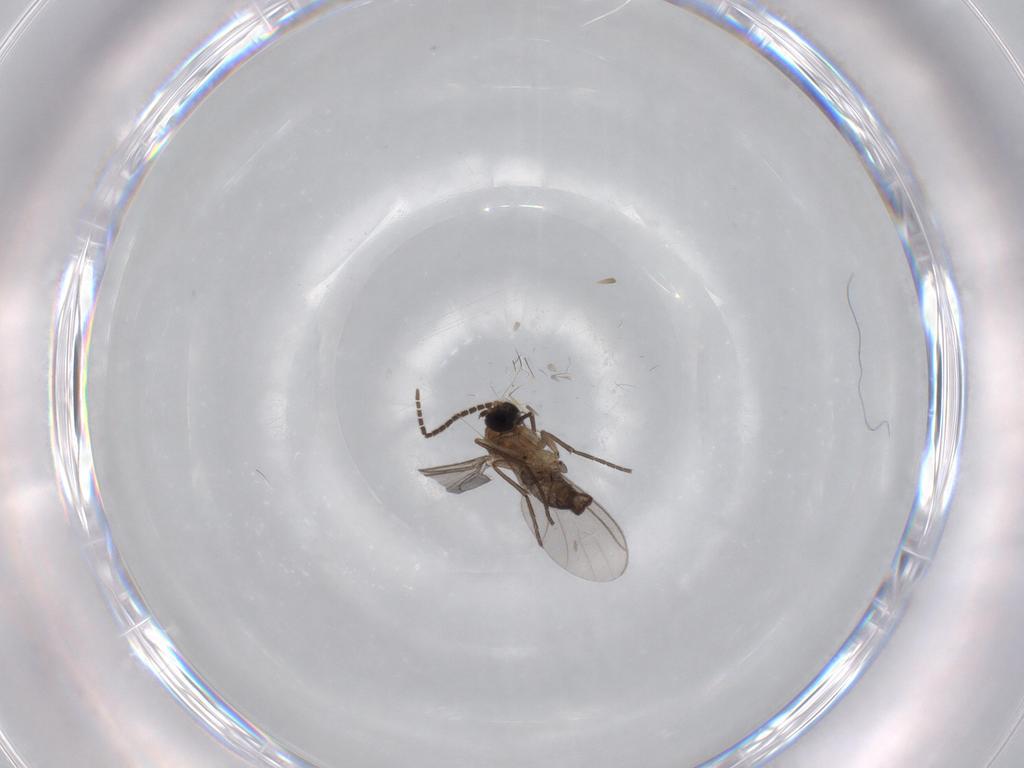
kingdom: Animalia
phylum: Arthropoda
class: Insecta
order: Diptera
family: Sciaridae
